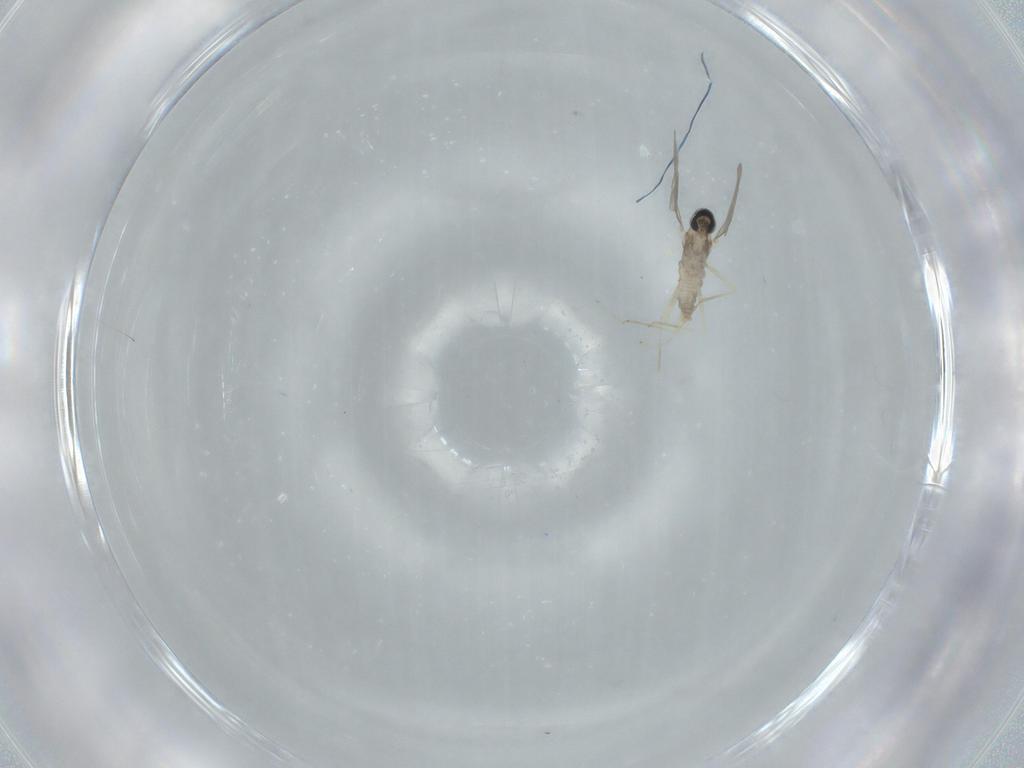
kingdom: Animalia
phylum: Arthropoda
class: Insecta
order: Diptera
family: Cecidomyiidae
